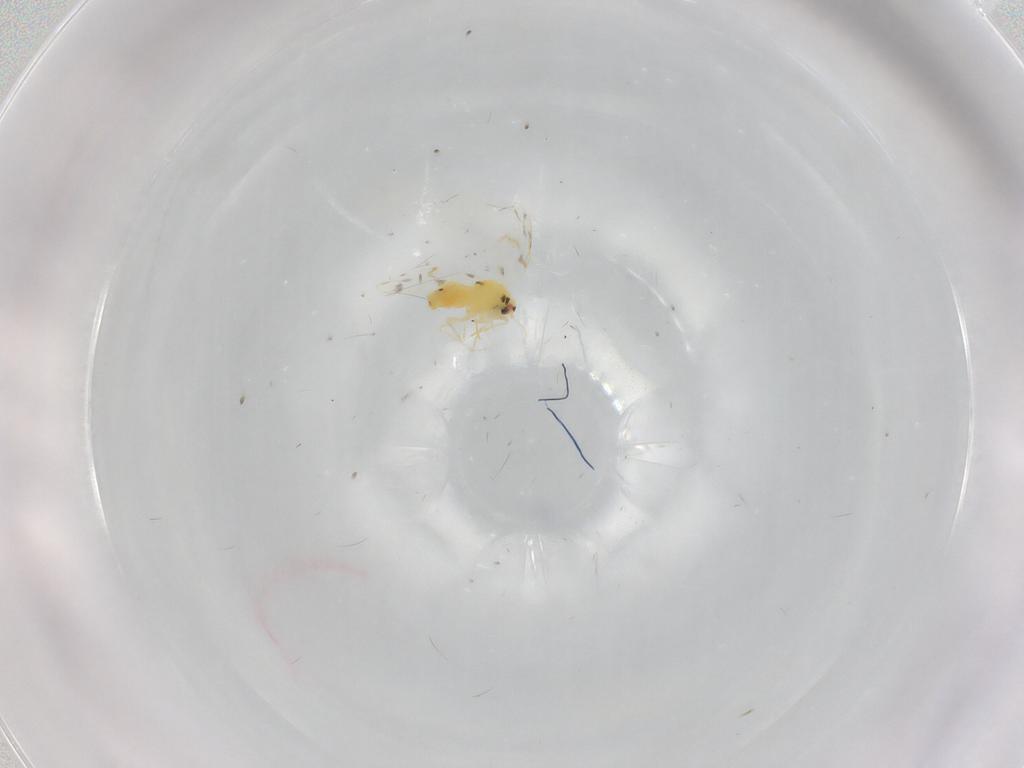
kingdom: Animalia
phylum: Arthropoda
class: Insecta
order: Hemiptera
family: Aleyrodidae
